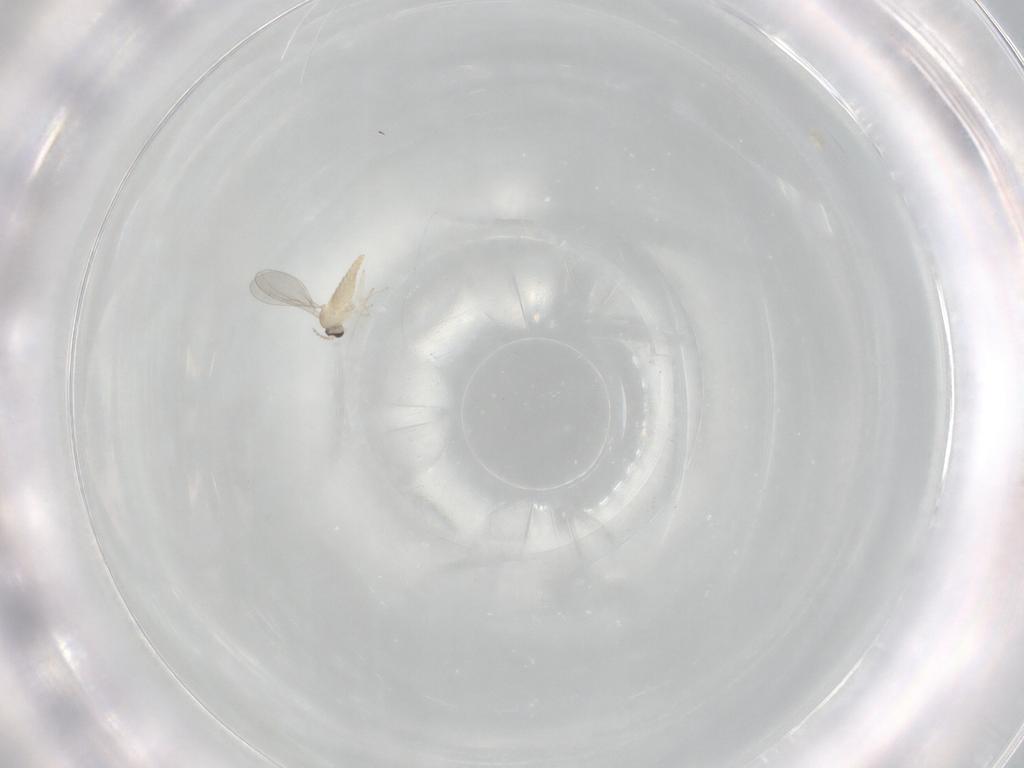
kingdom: Animalia
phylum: Arthropoda
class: Insecta
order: Diptera
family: Cecidomyiidae
